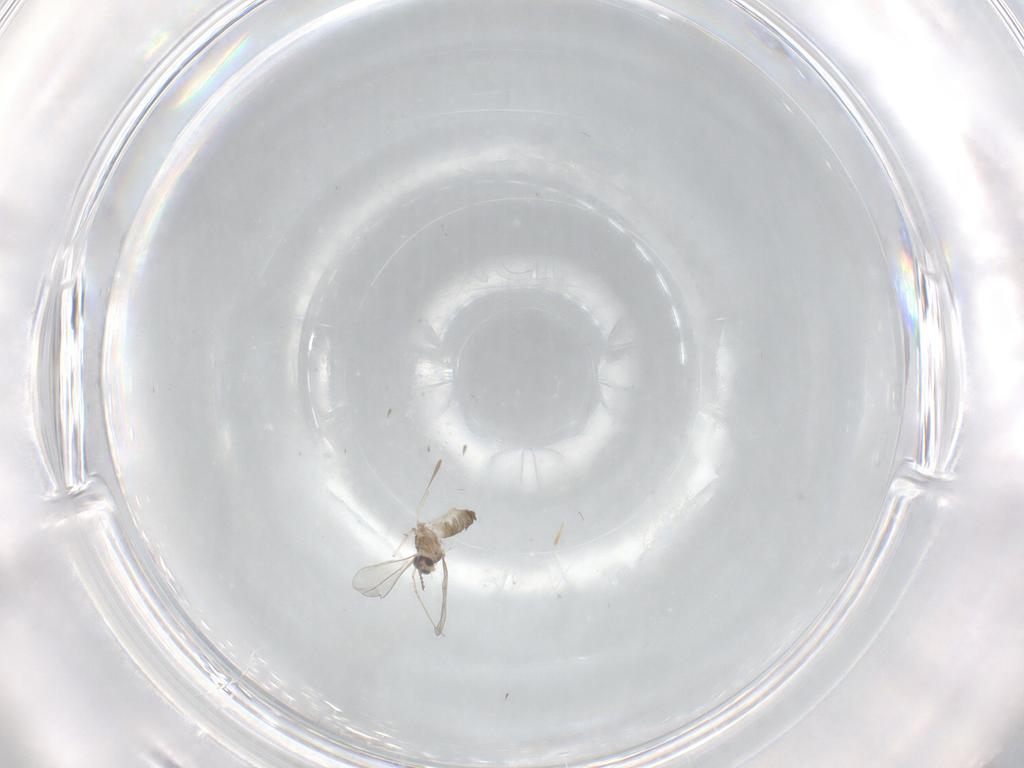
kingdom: Animalia
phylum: Arthropoda
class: Insecta
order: Diptera
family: Cecidomyiidae
